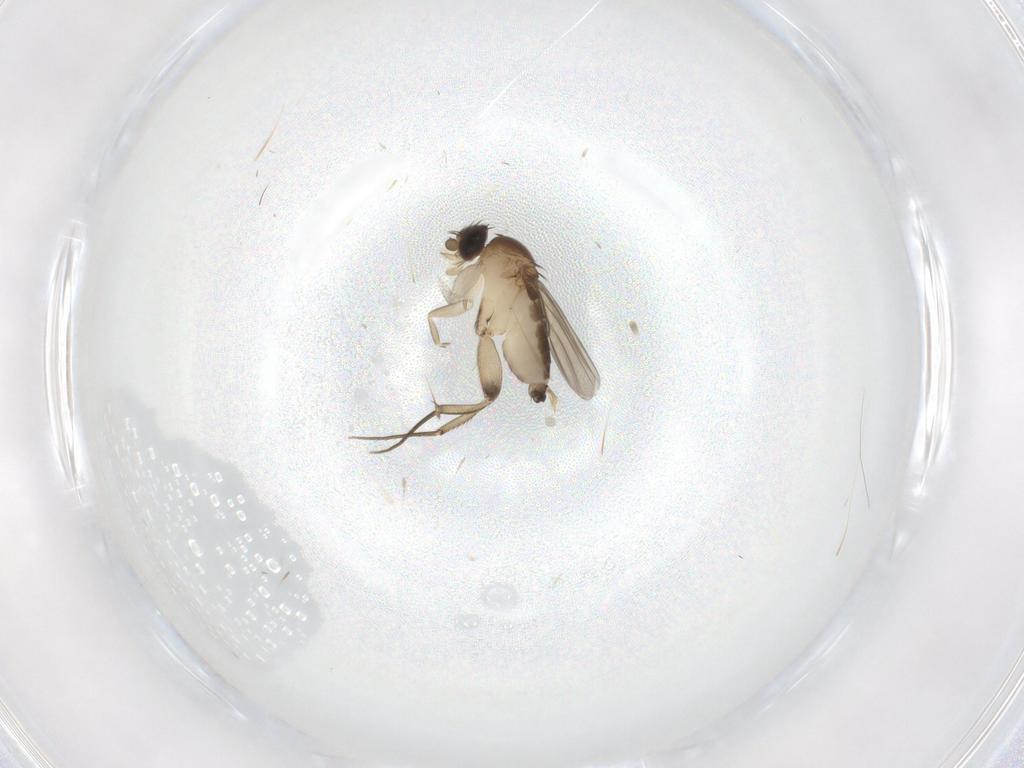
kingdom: Animalia
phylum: Arthropoda
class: Insecta
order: Diptera
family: Phoridae
